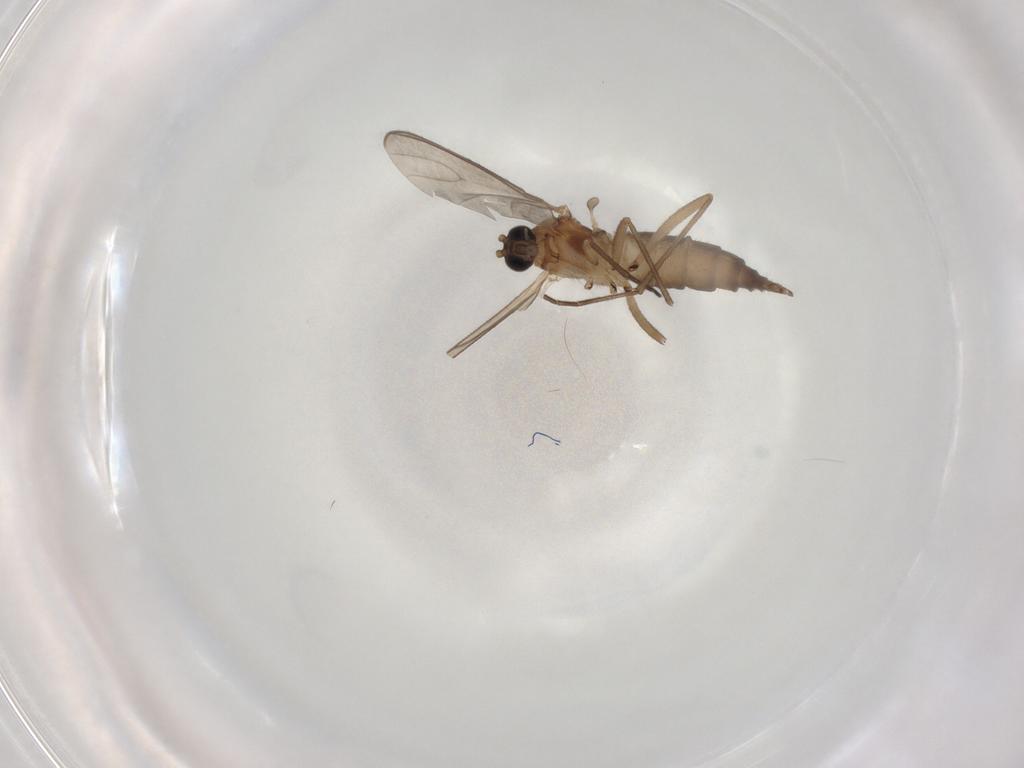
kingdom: Animalia
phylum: Arthropoda
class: Insecta
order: Diptera
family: Sciaridae
